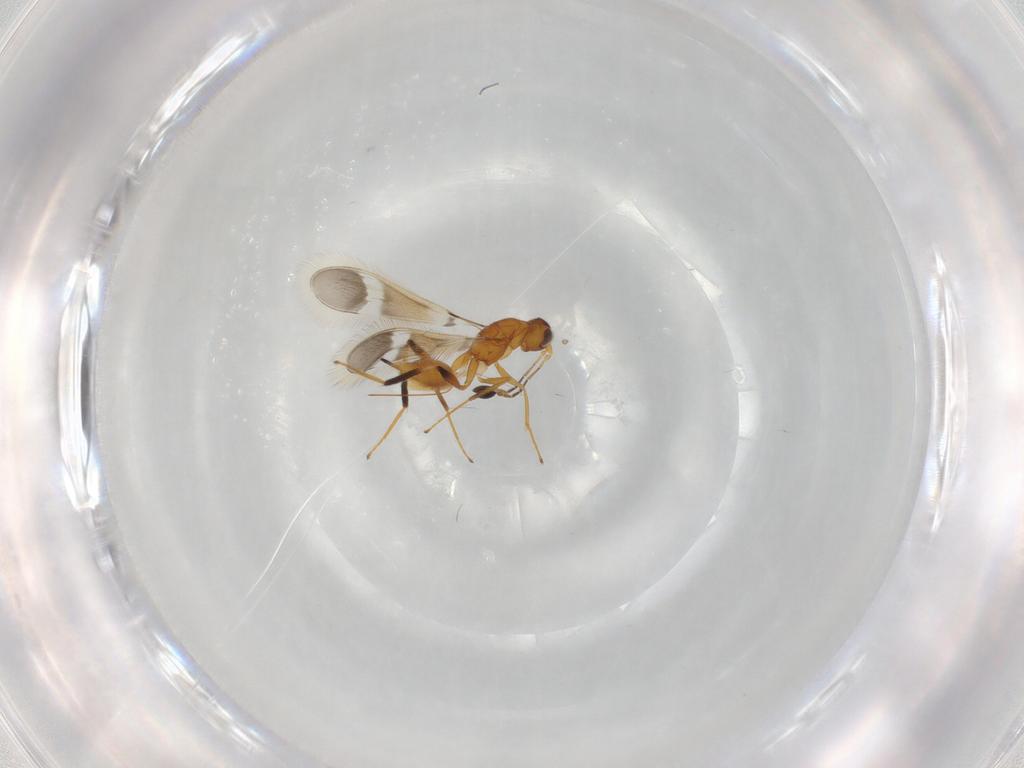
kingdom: Animalia
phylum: Arthropoda
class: Insecta
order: Hymenoptera
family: Mymaridae
